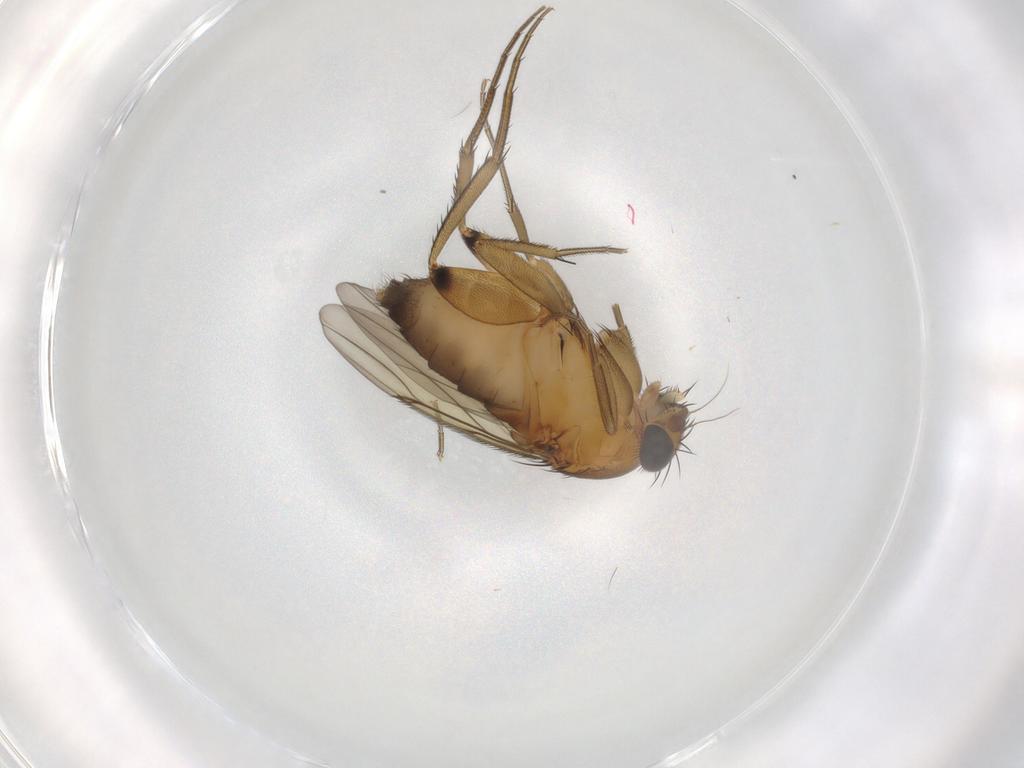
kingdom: Animalia
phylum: Arthropoda
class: Insecta
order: Diptera
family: Phoridae
